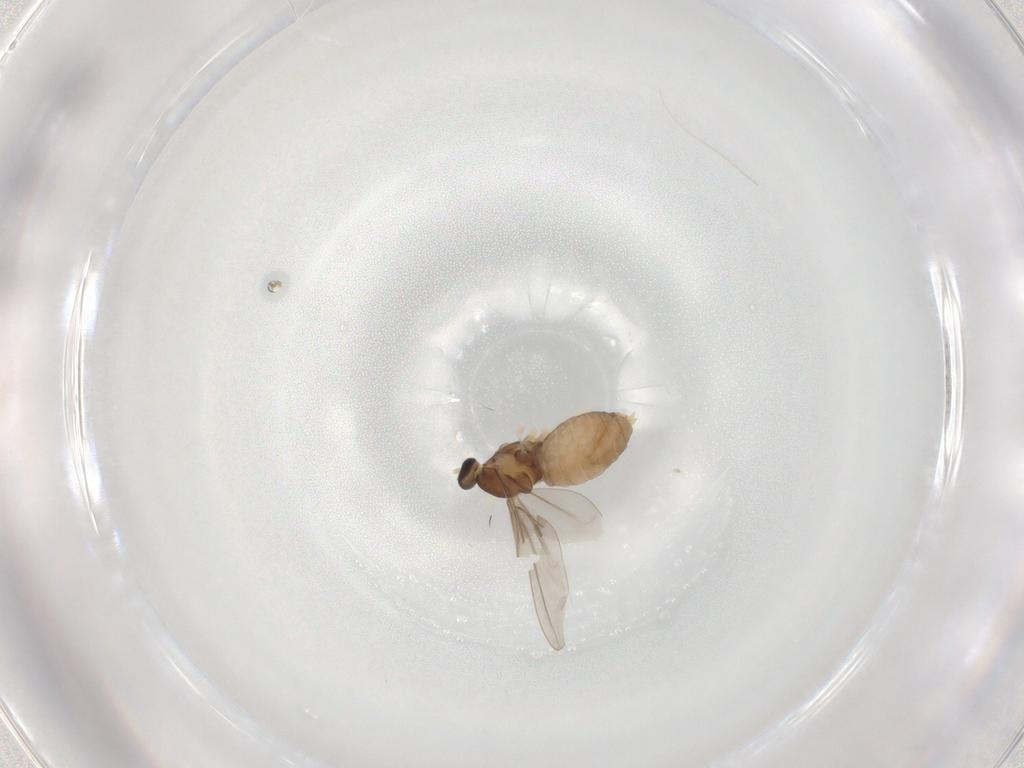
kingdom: Animalia
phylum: Arthropoda
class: Insecta
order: Diptera
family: Cecidomyiidae
